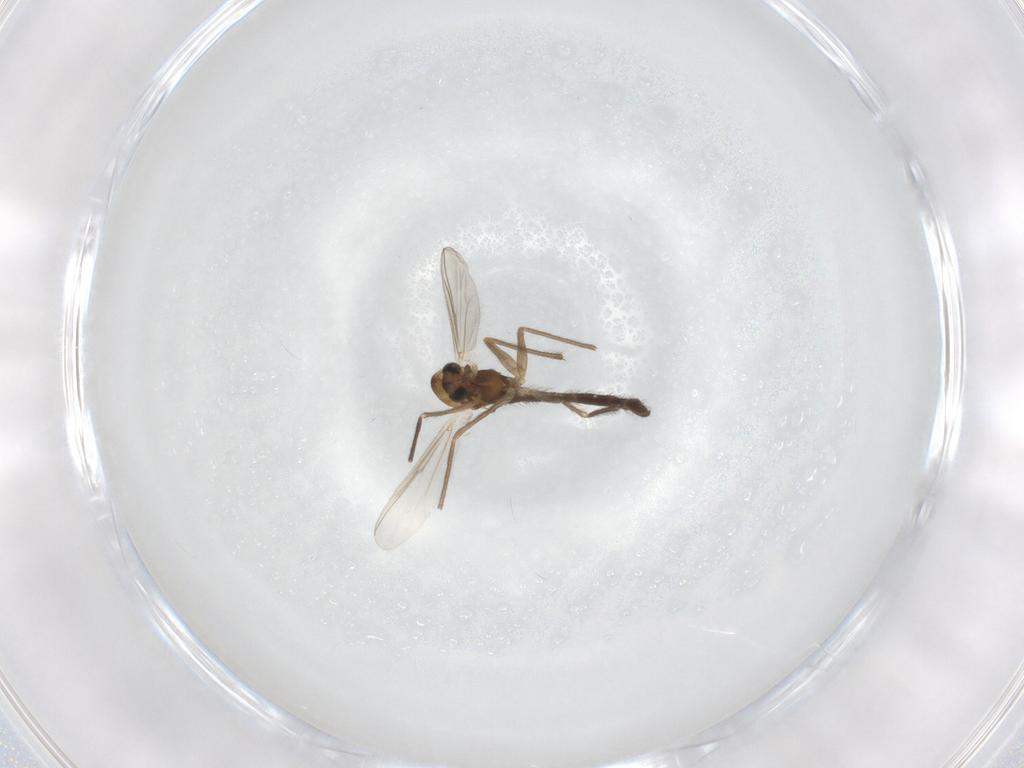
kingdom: Animalia
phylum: Arthropoda
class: Insecta
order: Diptera
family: Chironomidae
